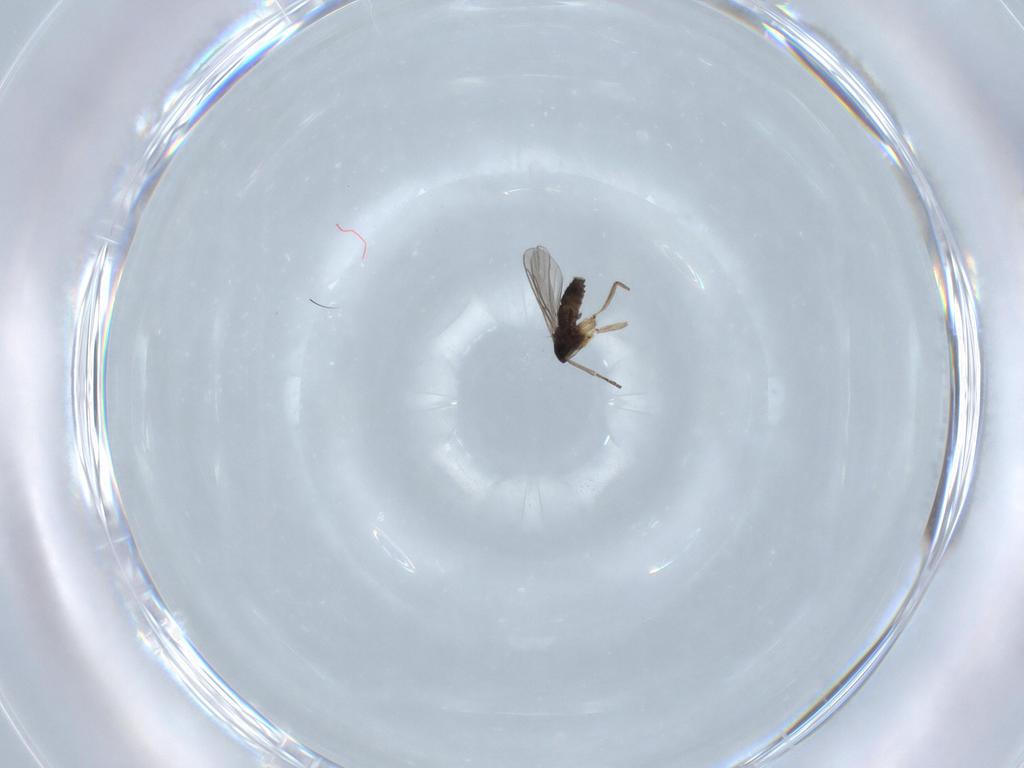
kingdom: Animalia
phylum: Arthropoda
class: Insecta
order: Diptera
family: Sciaridae
